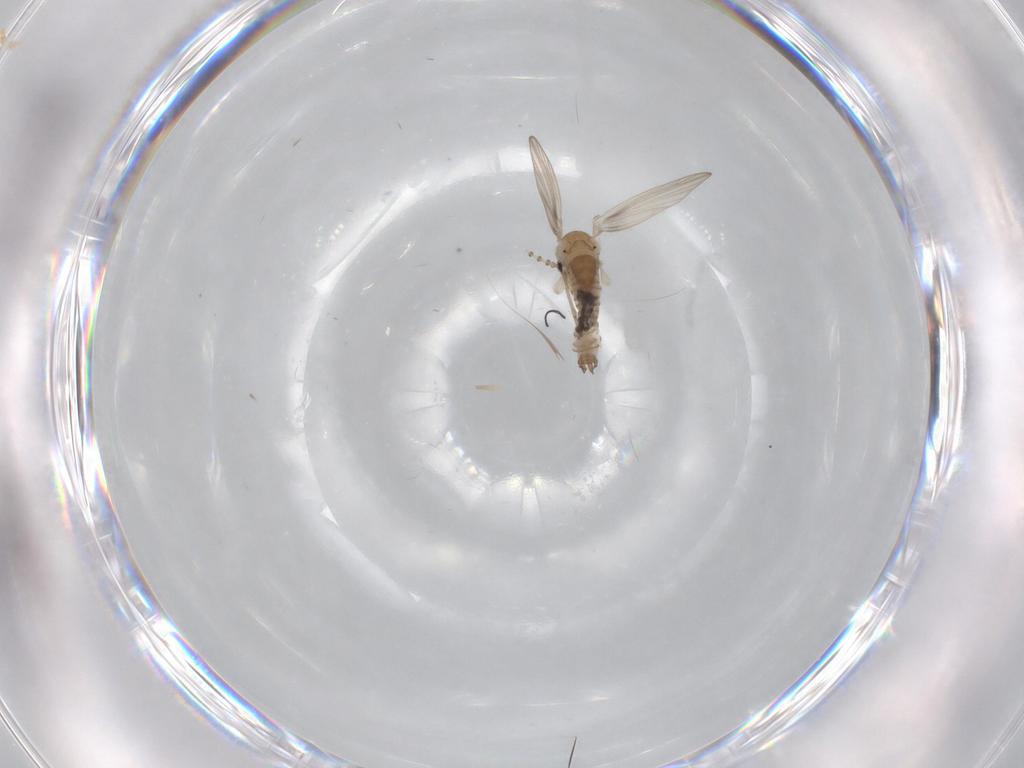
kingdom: Animalia
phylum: Arthropoda
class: Insecta
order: Diptera
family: Psychodidae
